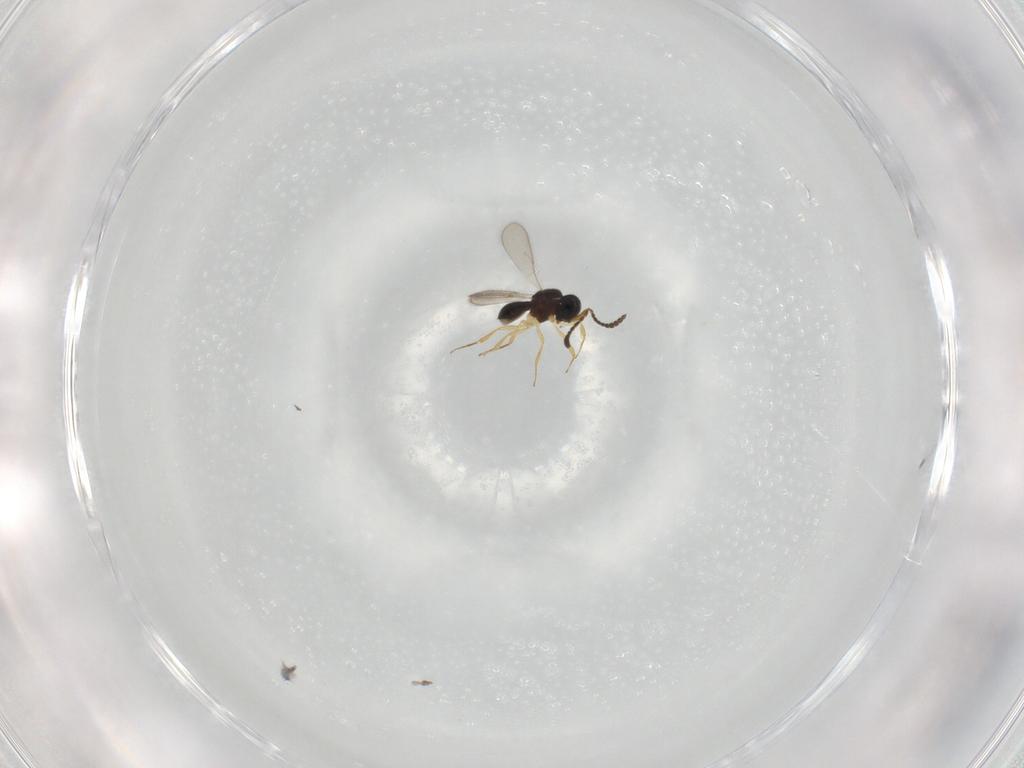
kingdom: Animalia
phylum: Arthropoda
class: Insecta
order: Hymenoptera
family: Scelionidae
